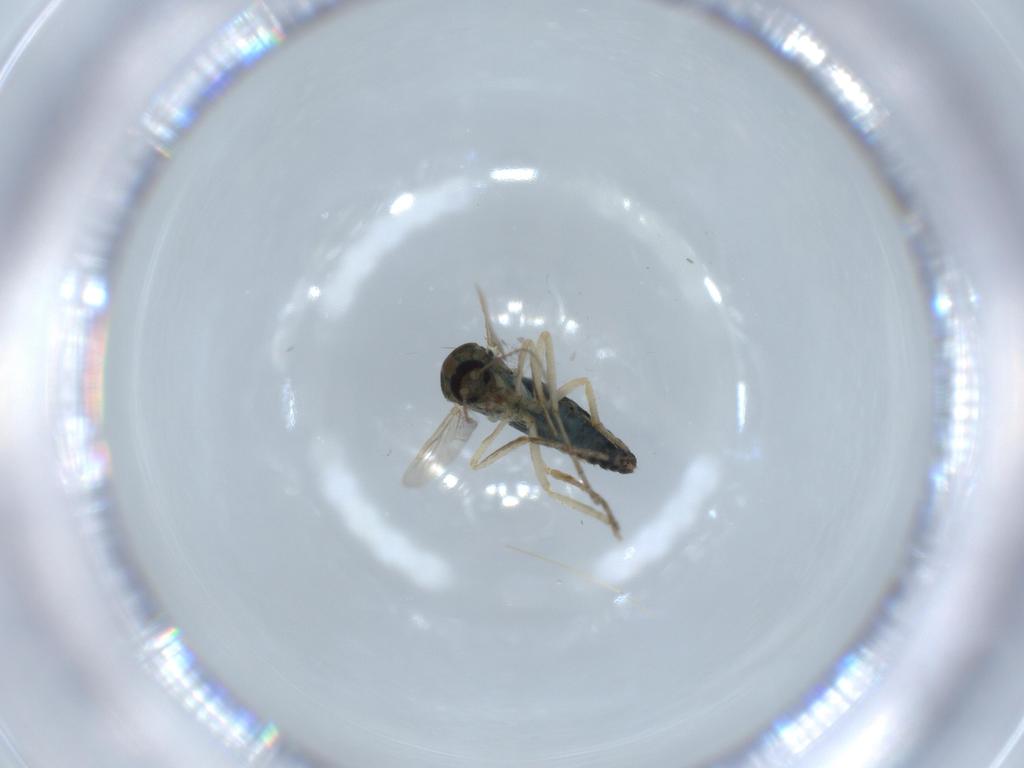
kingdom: Animalia
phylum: Arthropoda
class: Insecta
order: Diptera
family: Ceratopogonidae
